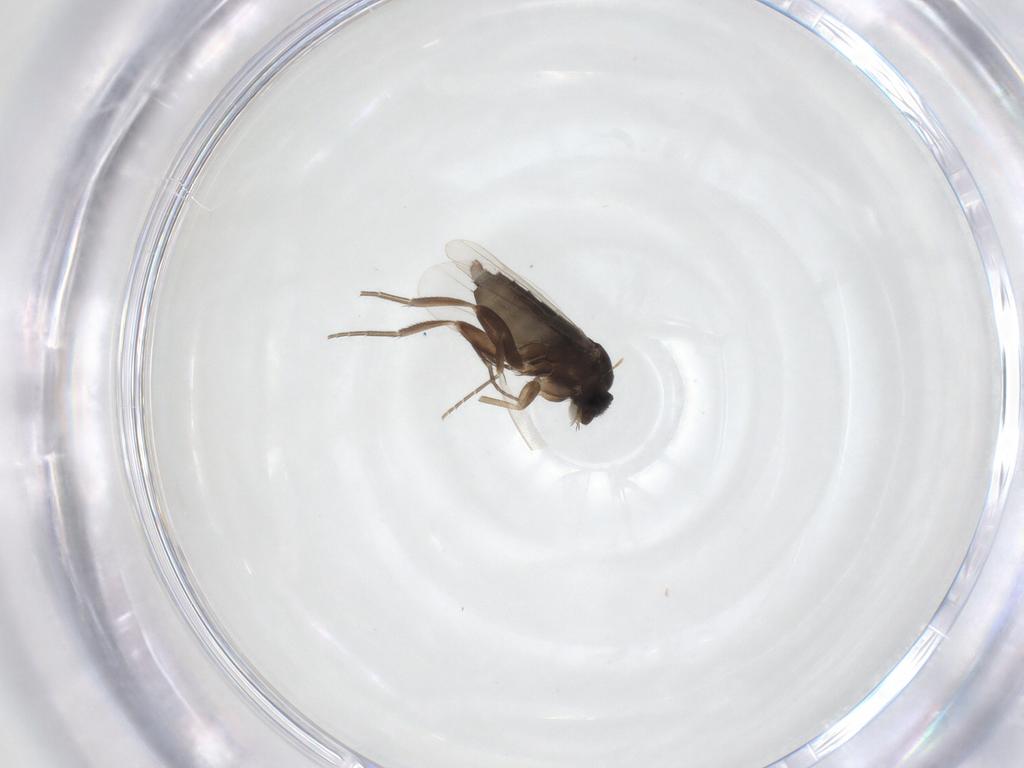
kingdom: Animalia
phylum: Arthropoda
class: Insecta
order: Diptera
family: Phoridae
